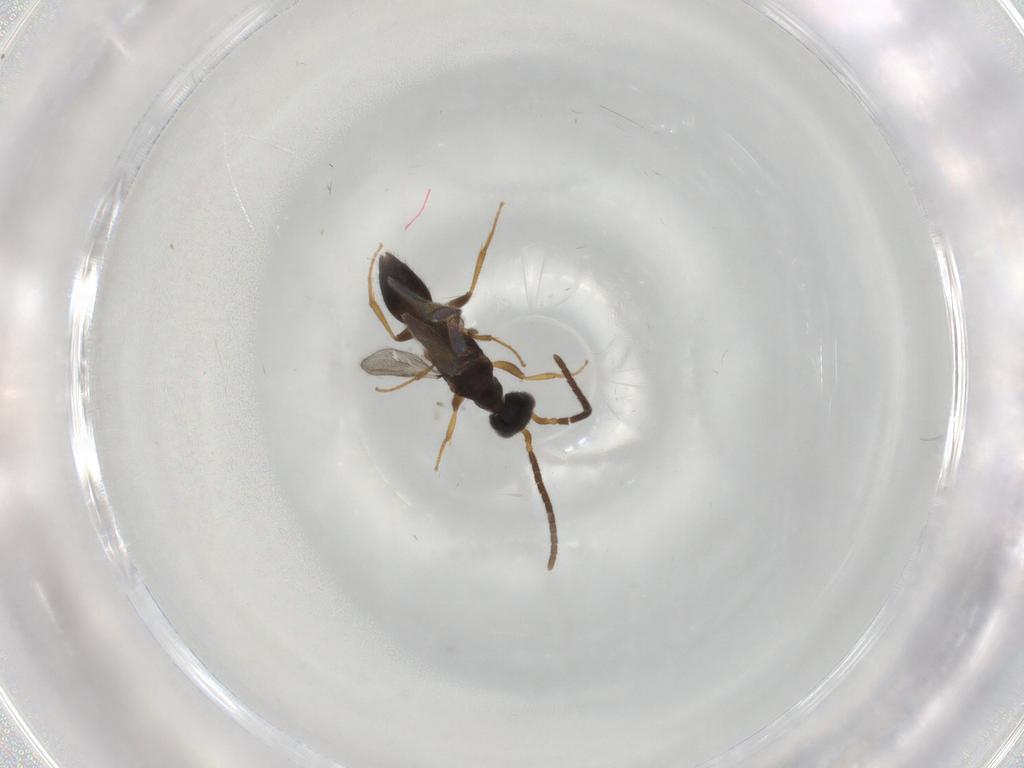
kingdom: Animalia
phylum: Arthropoda
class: Insecta
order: Hymenoptera
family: Bethylidae
